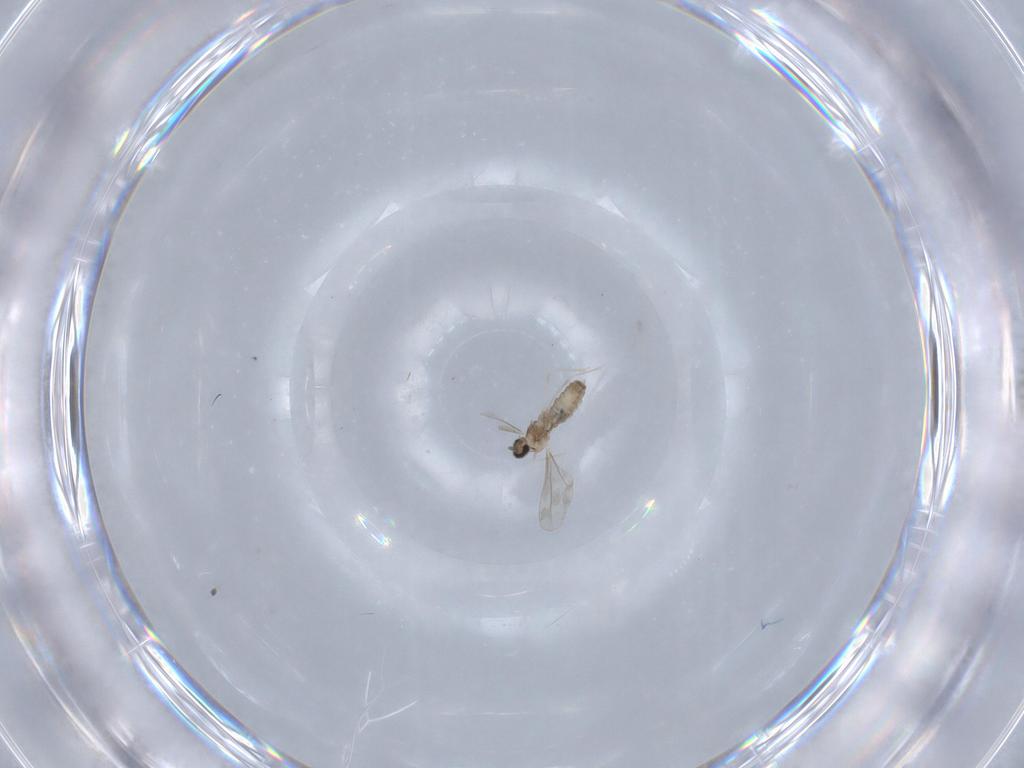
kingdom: Animalia
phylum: Arthropoda
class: Insecta
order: Diptera
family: Cecidomyiidae
